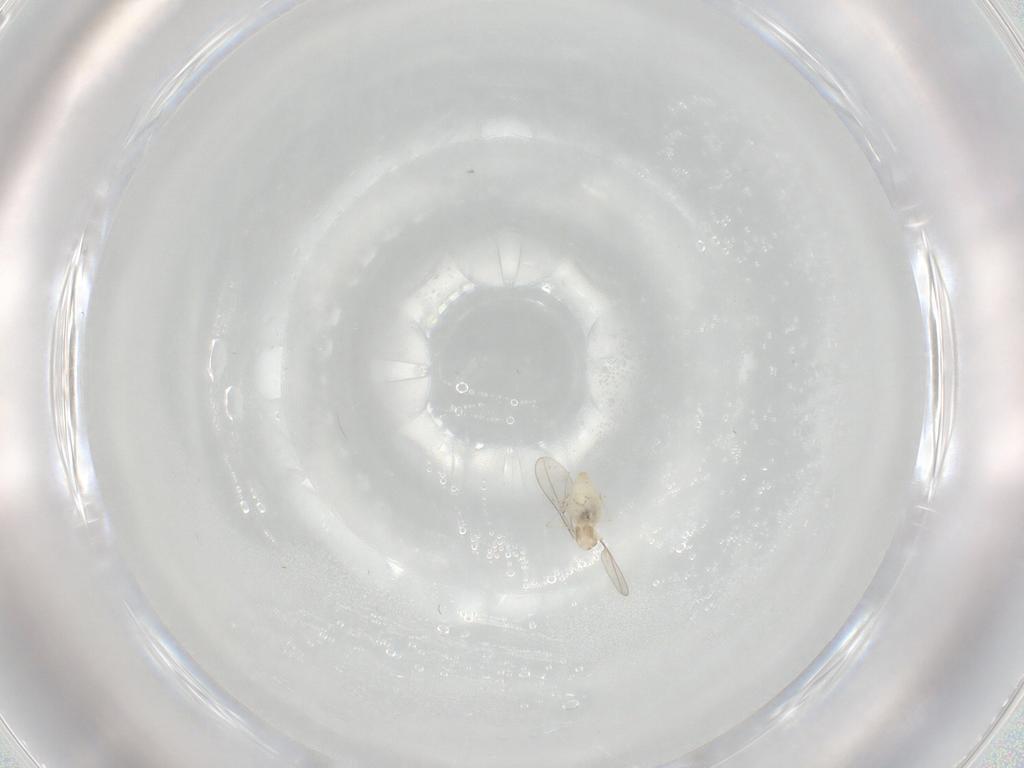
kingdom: Animalia
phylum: Arthropoda
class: Insecta
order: Diptera
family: Cecidomyiidae
